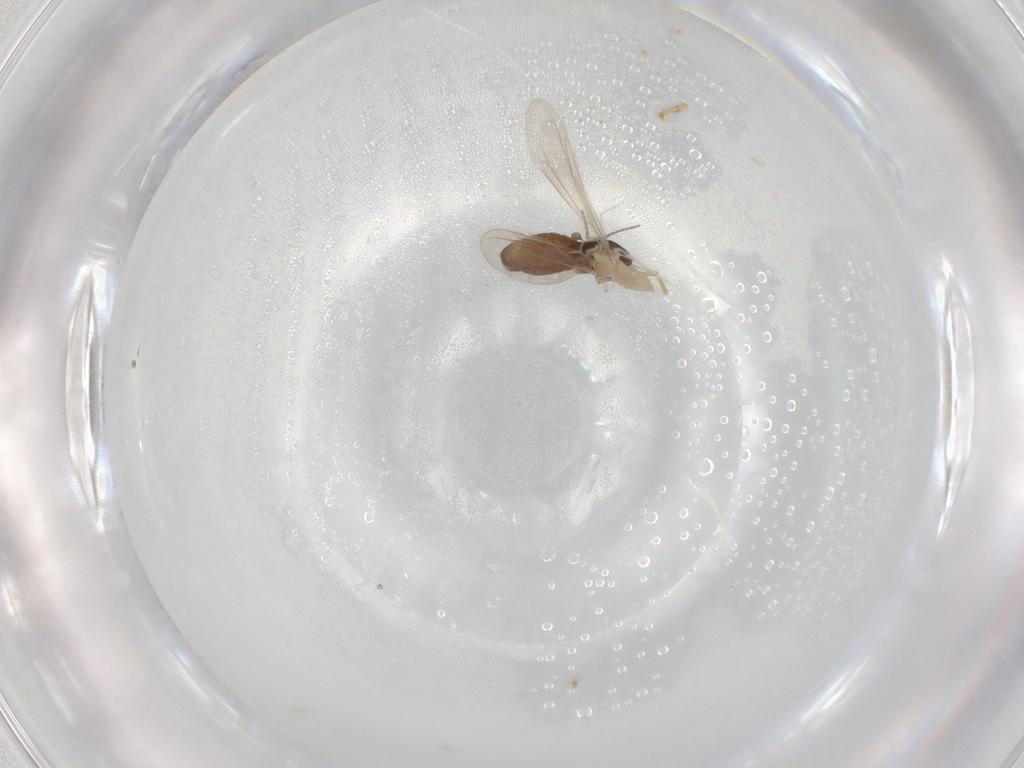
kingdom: Animalia
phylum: Arthropoda
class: Insecta
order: Diptera
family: Chironomidae
